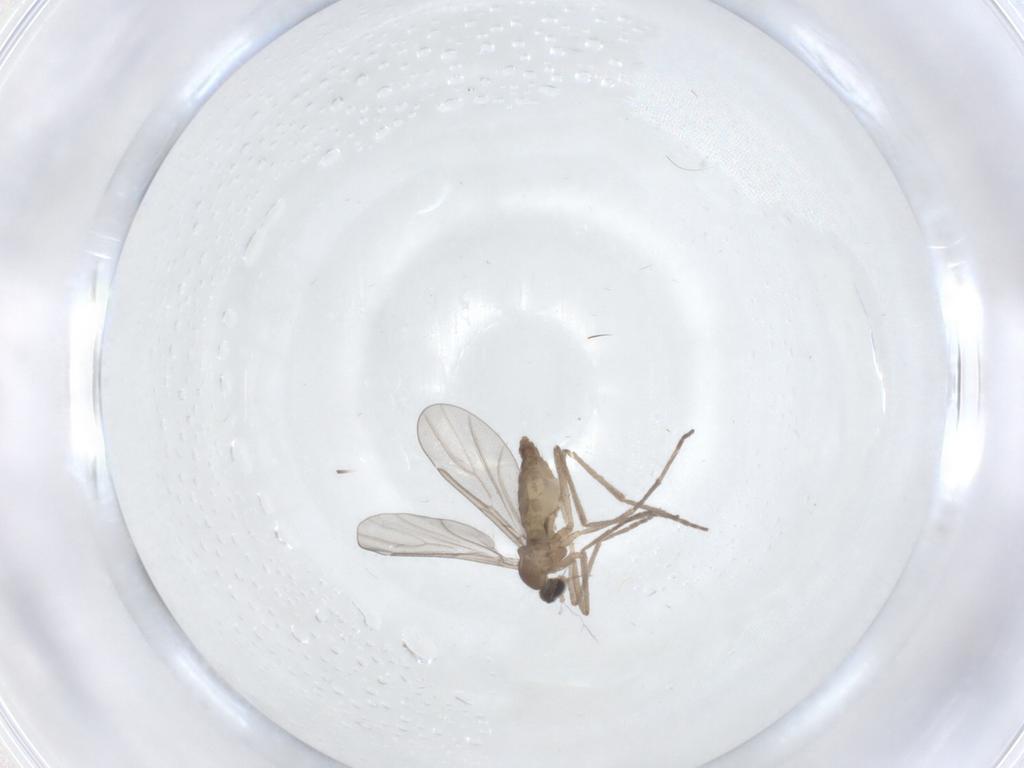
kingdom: Animalia
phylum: Arthropoda
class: Insecta
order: Diptera
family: Cecidomyiidae
